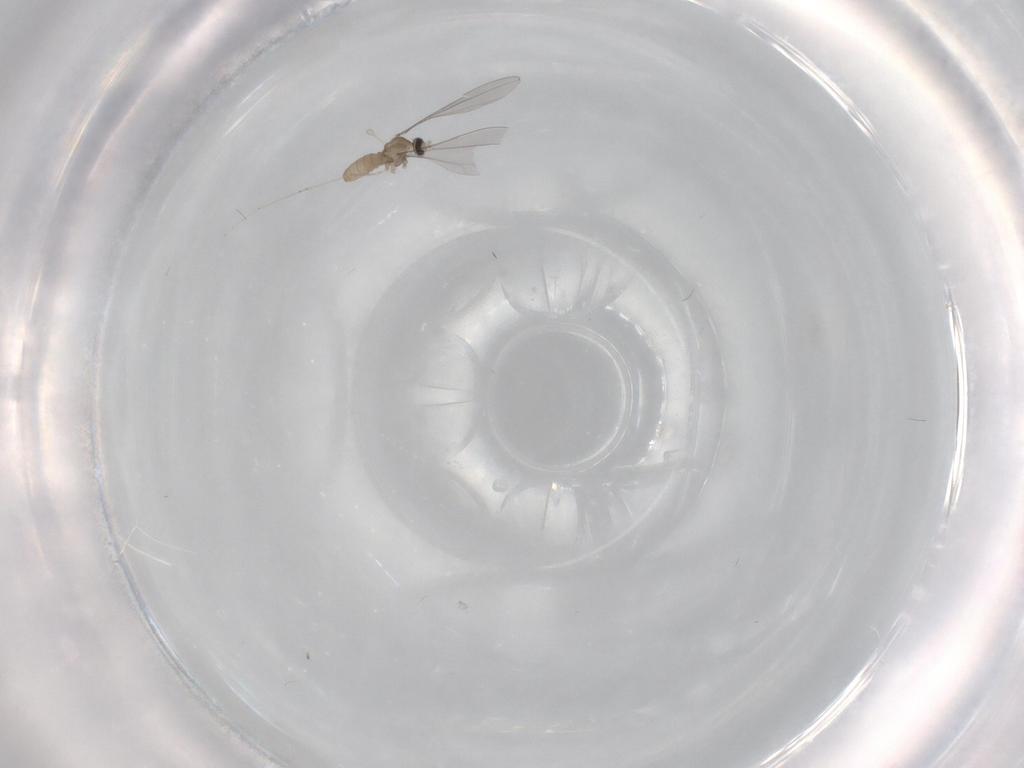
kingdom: Animalia
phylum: Arthropoda
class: Insecta
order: Diptera
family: Cecidomyiidae
